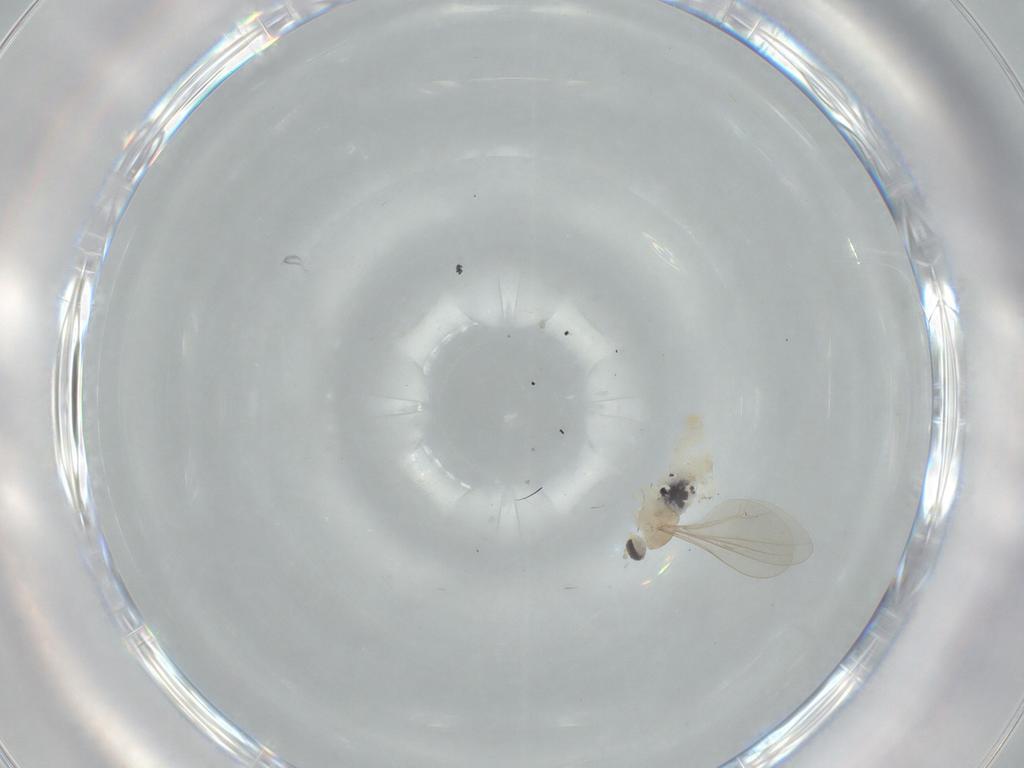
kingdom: Animalia
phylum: Arthropoda
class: Insecta
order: Diptera
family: Cecidomyiidae
